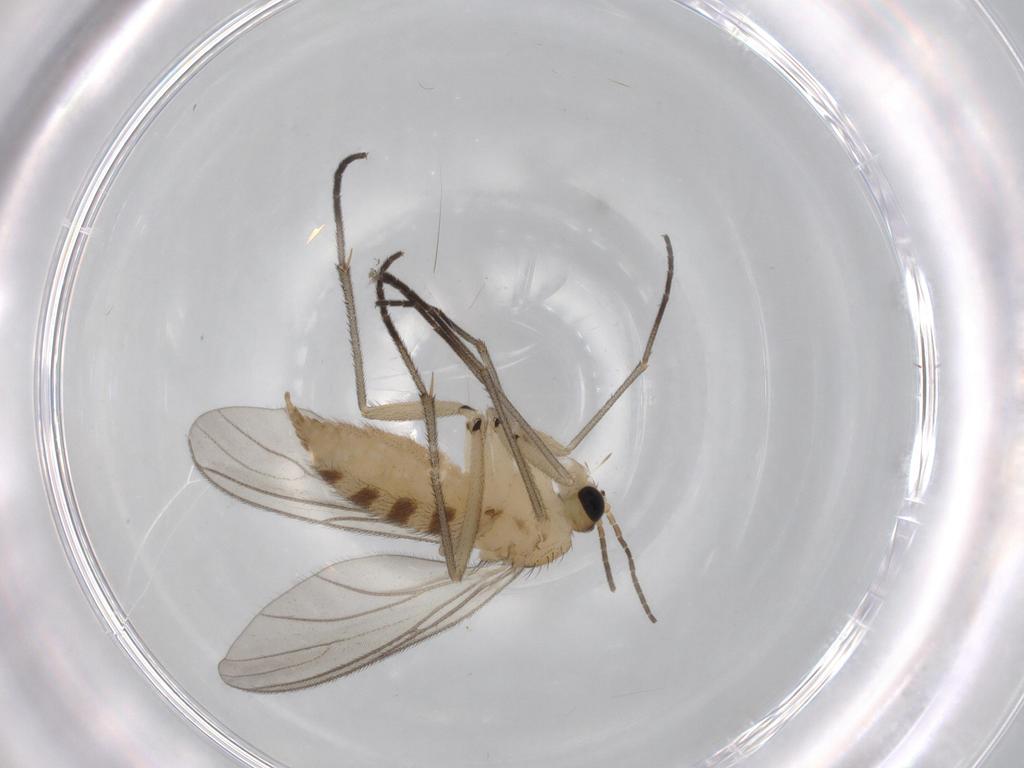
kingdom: Animalia
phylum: Arthropoda
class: Insecta
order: Diptera
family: Sciaridae
